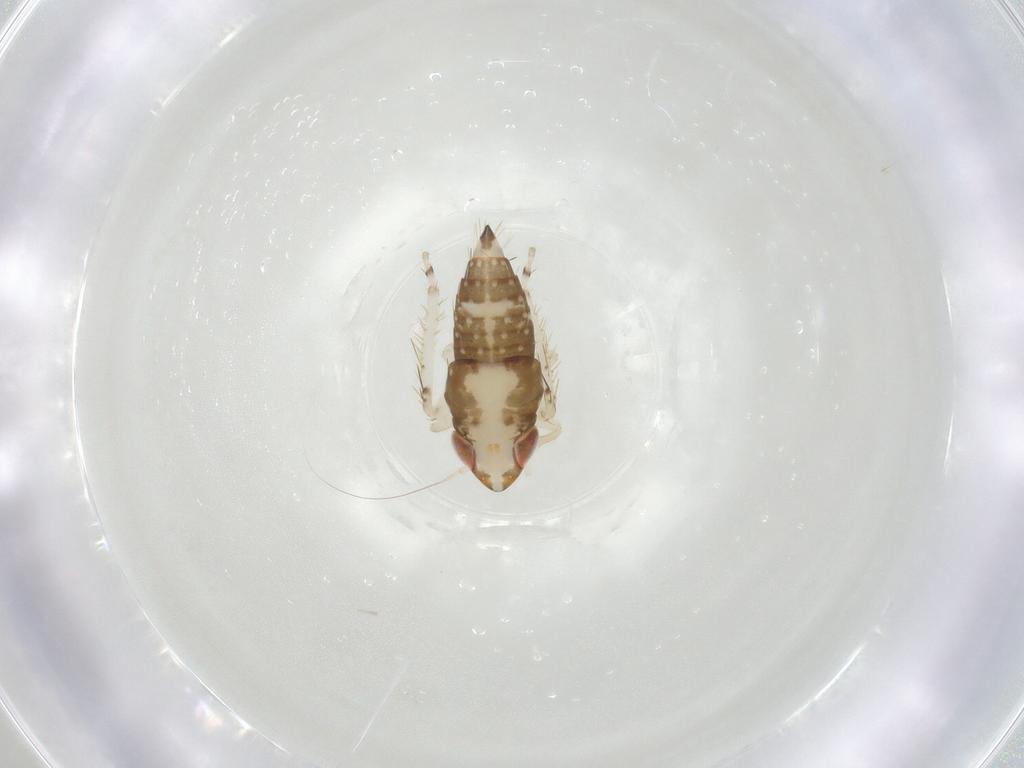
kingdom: Animalia
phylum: Arthropoda
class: Insecta
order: Hemiptera
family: Cicadellidae
